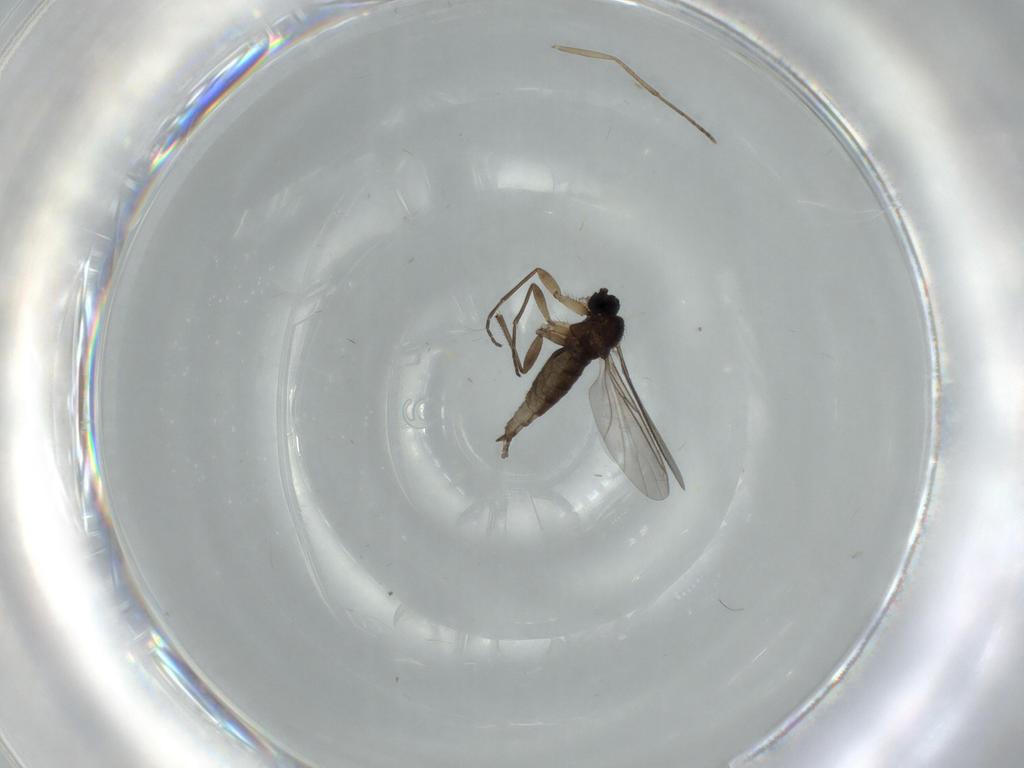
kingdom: Animalia
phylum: Arthropoda
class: Insecta
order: Diptera
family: Sciaridae
